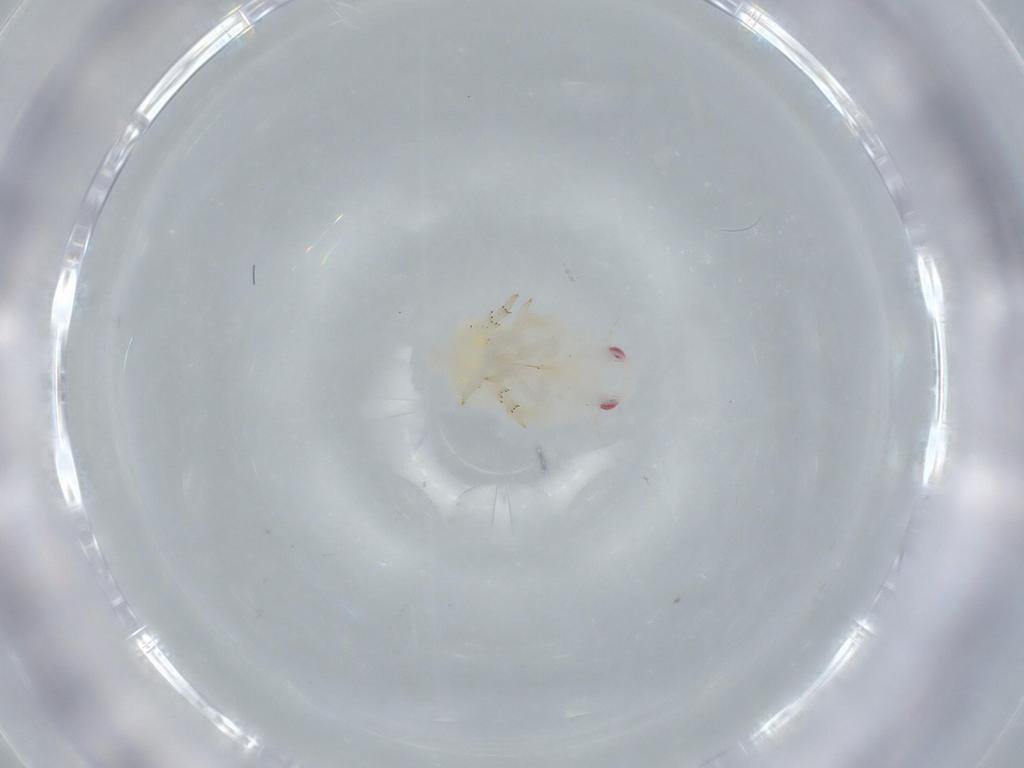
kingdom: Animalia
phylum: Arthropoda
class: Insecta
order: Hemiptera
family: Flatidae
